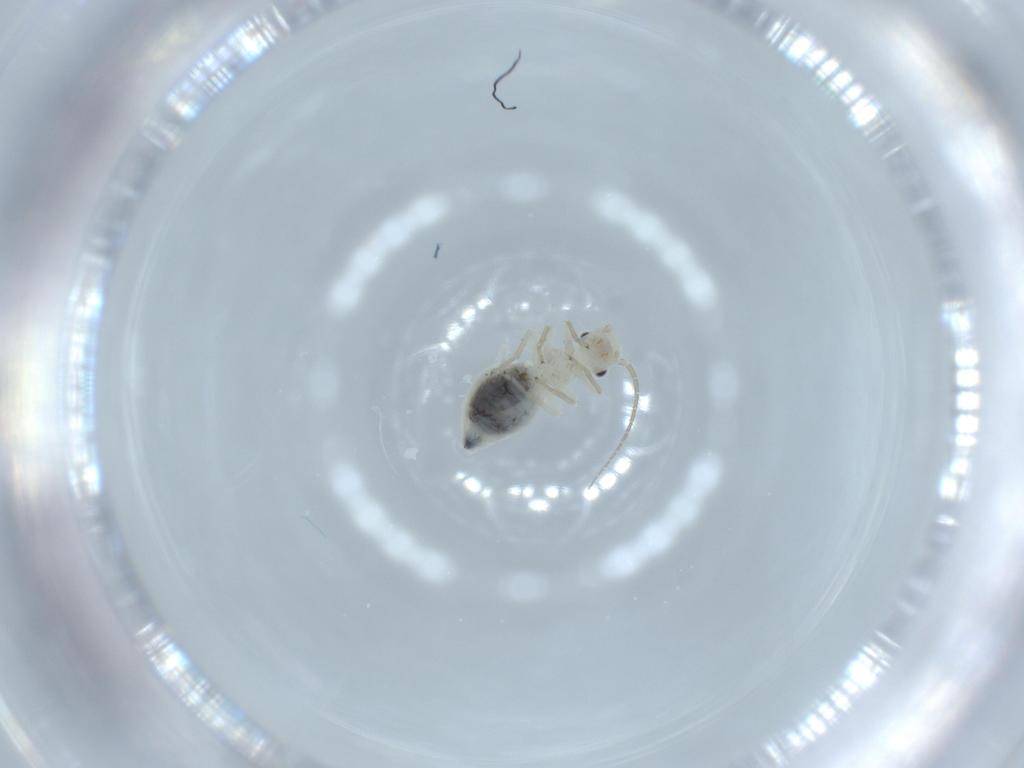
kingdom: Animalia
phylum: Arthropoda
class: Insecta
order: Psocodea
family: Caeciliusidae
